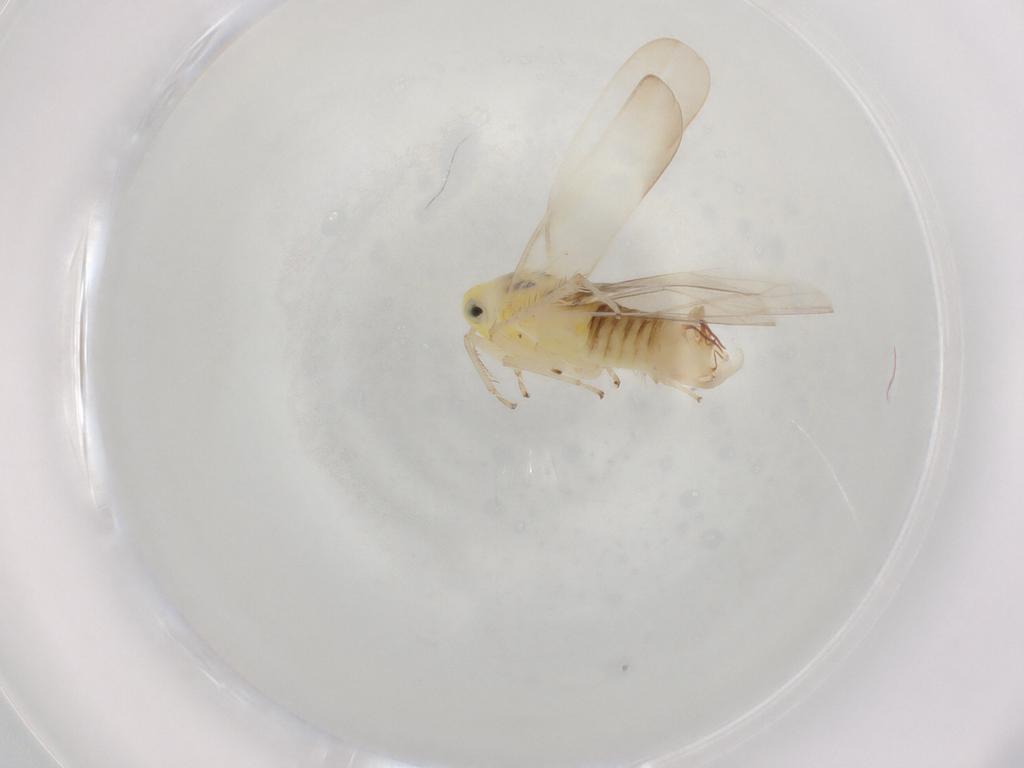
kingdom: Animalia
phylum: Arthropoda
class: Insecta
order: Hemiptera
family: Cicadellidae
